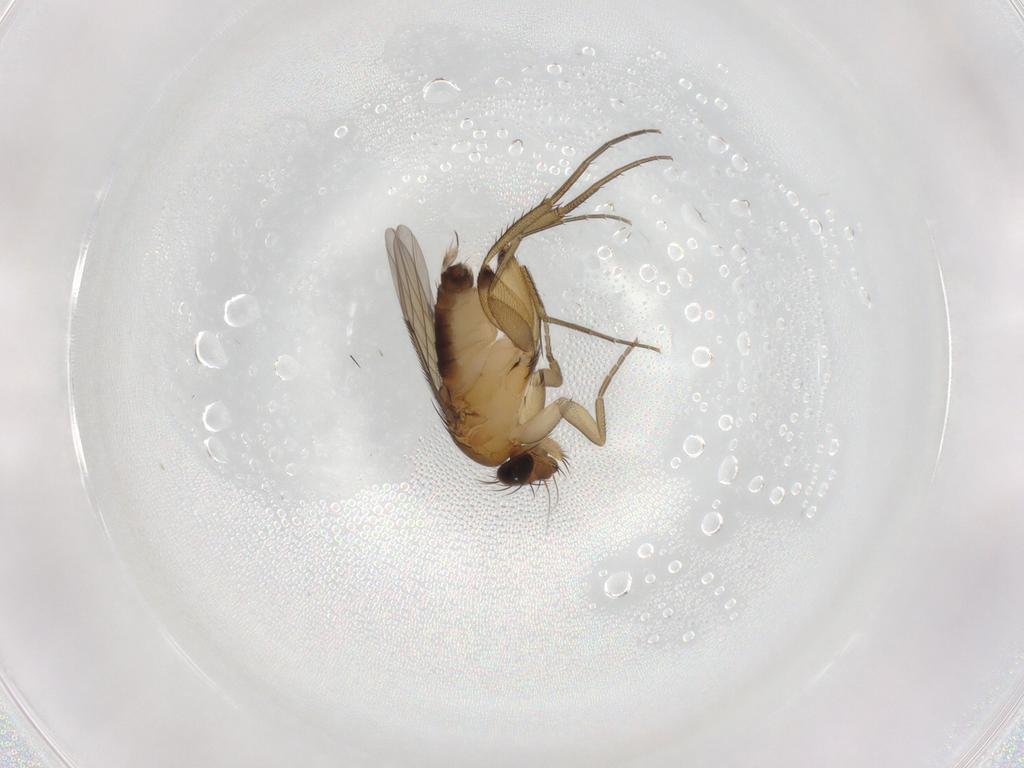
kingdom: Animalia
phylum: Arthropoda
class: Insecta
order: Diptera
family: Phoridae
